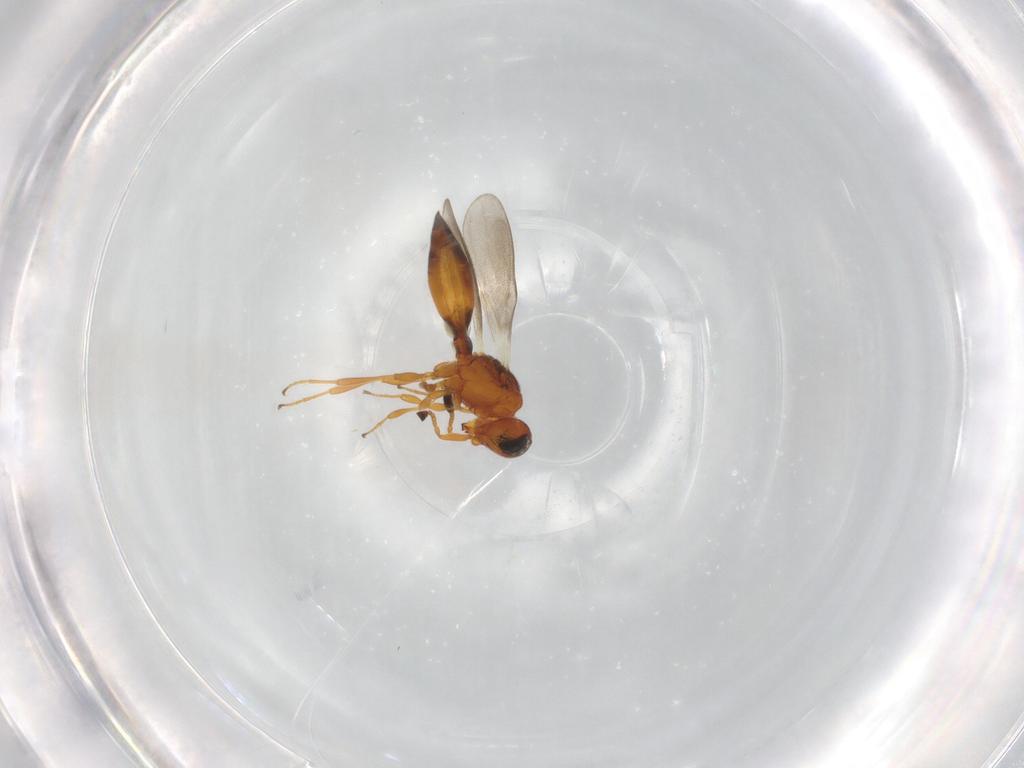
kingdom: Animalia
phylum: Arthropoda
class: Insecta
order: Hymenoptera
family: Scelionidae
